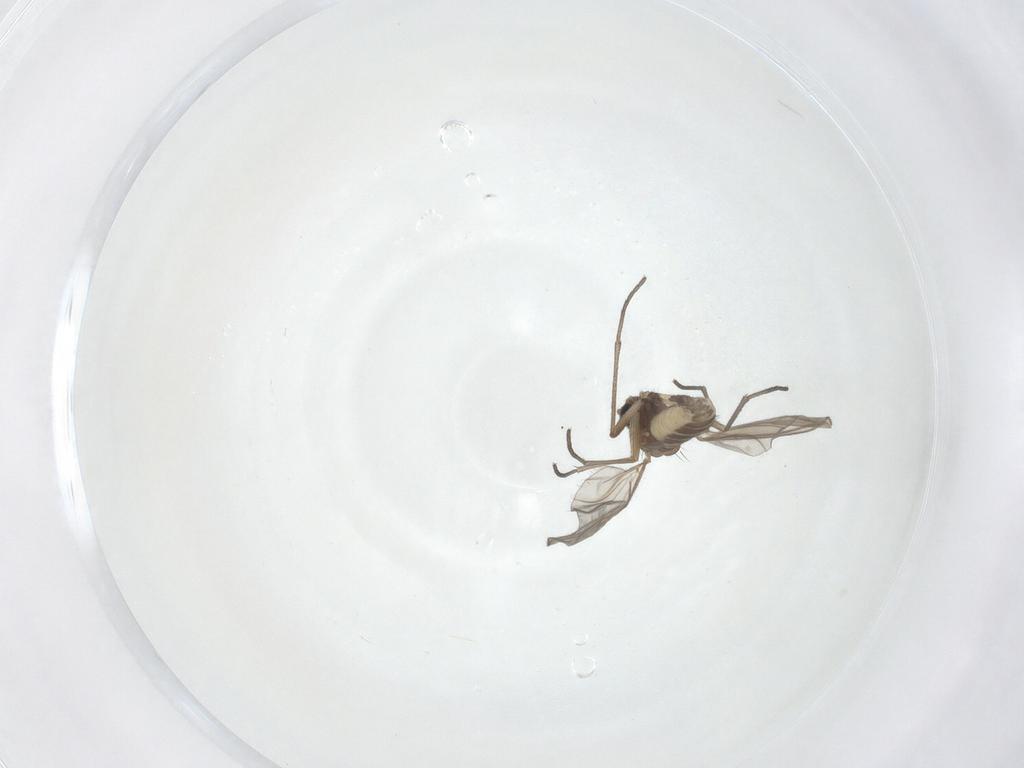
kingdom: Animalia
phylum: Arthropoda
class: Insecta
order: Diptera
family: Sciaridae
